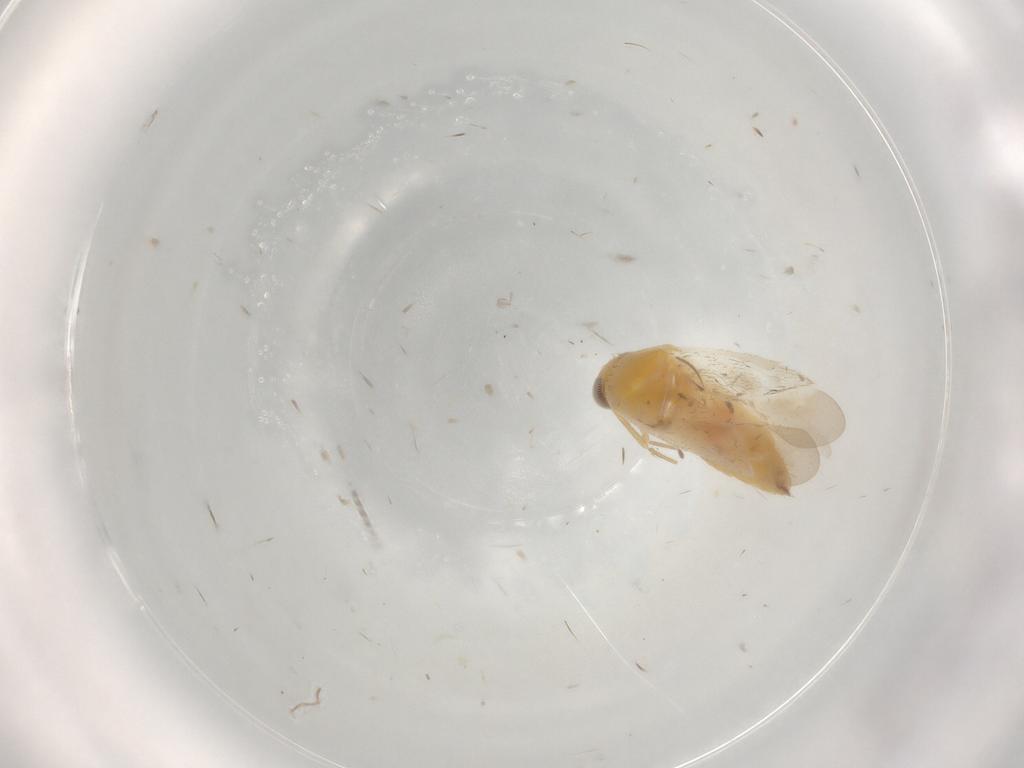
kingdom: Animalia
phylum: Arthropoda
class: Insecta
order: Hemiptera
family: Miridae
